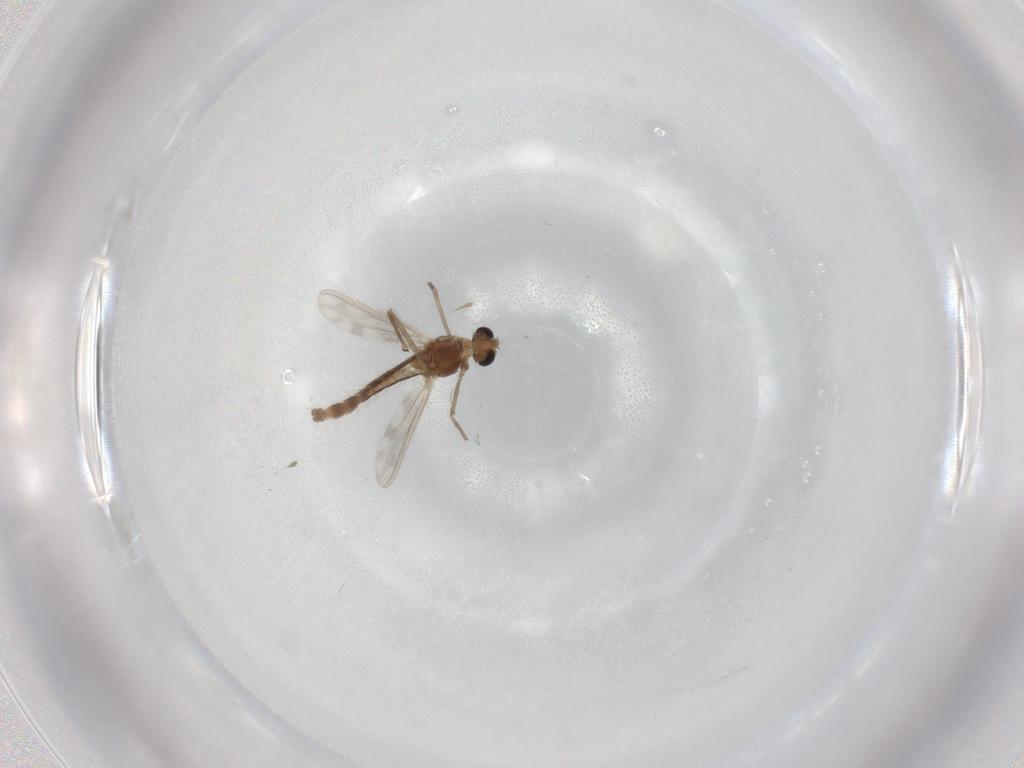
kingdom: Animalia
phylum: Arthropoda
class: Insecta
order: Diptera
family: Chironomidae
